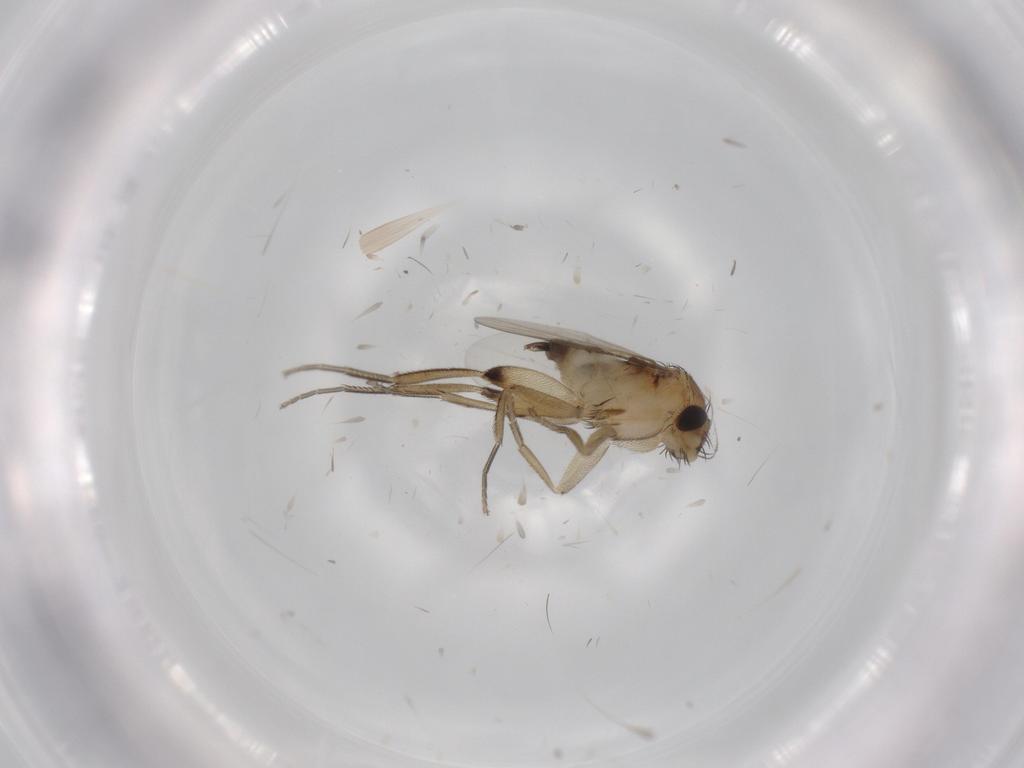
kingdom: Animalia
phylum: Arthropoda
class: Insecta
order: Diptera
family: Phoridae
